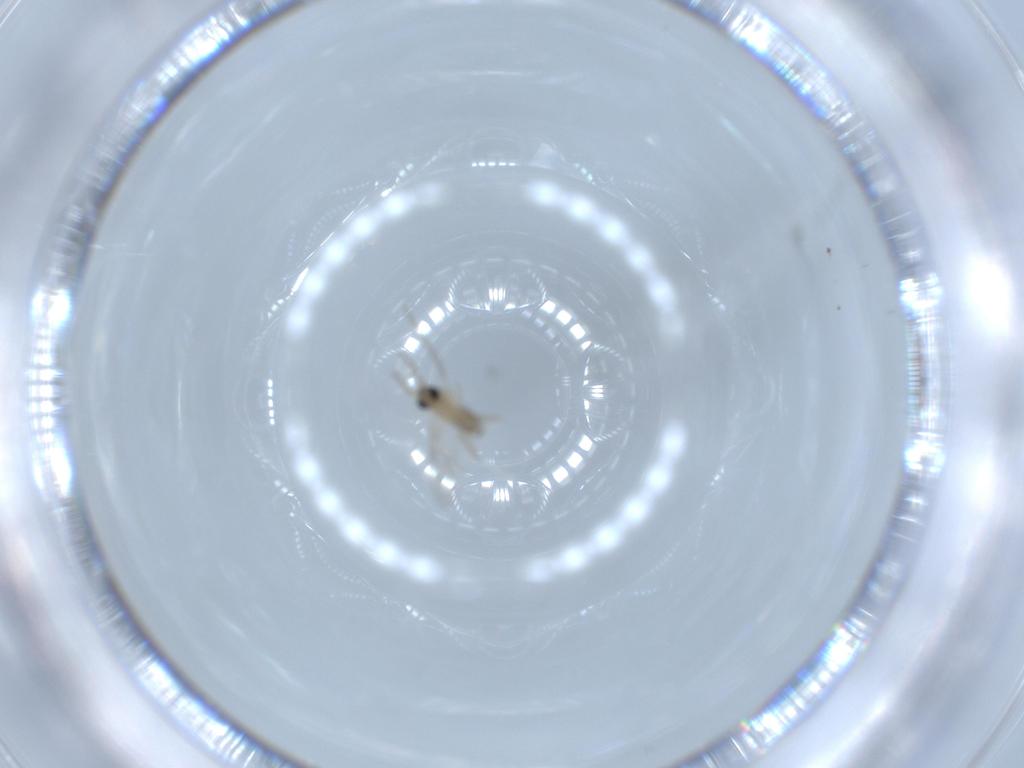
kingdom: Animalia
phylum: Arthropoda
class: Insecta
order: Diptera
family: Cecidomyiidae
